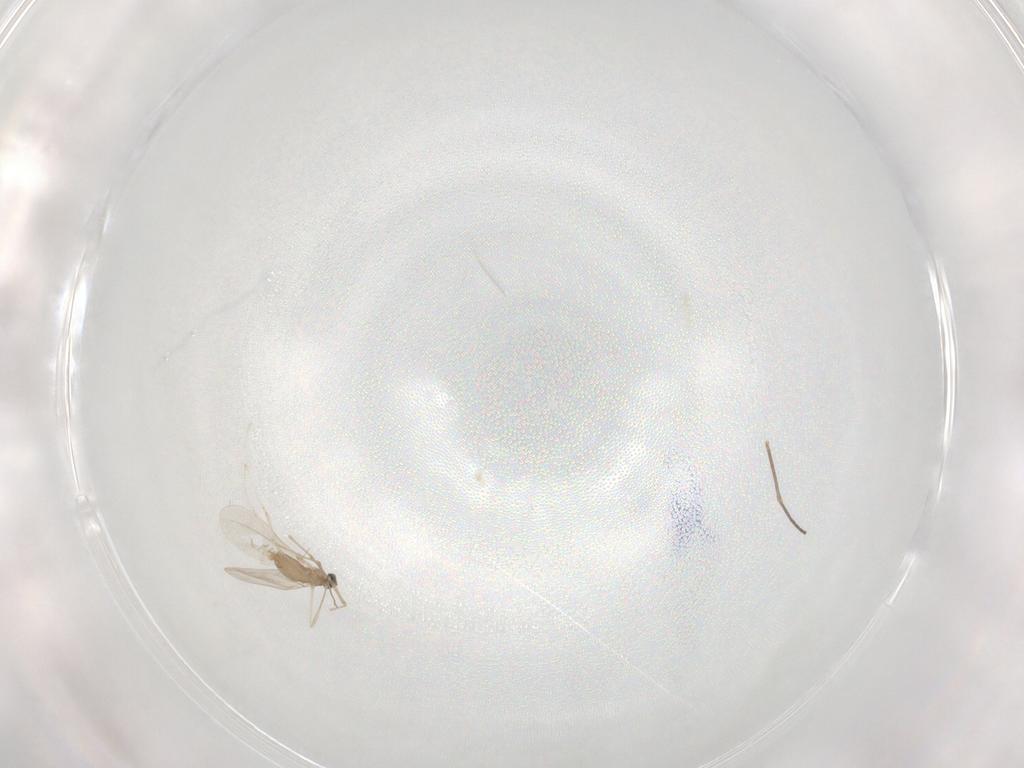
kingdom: Animalia
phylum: Arthropoda
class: Insecta
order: Diptera
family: Cecidomyiidae
